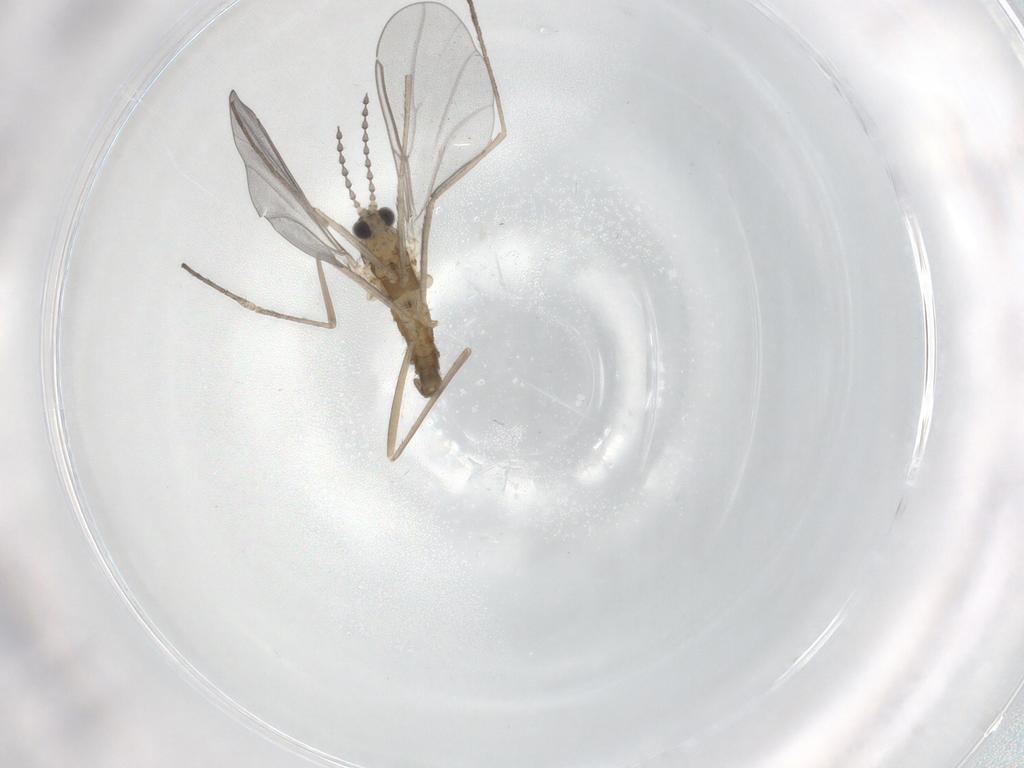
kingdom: Animalia
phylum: Arthropoda
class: Insecta
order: Diptera
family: Cecidomyiidae
